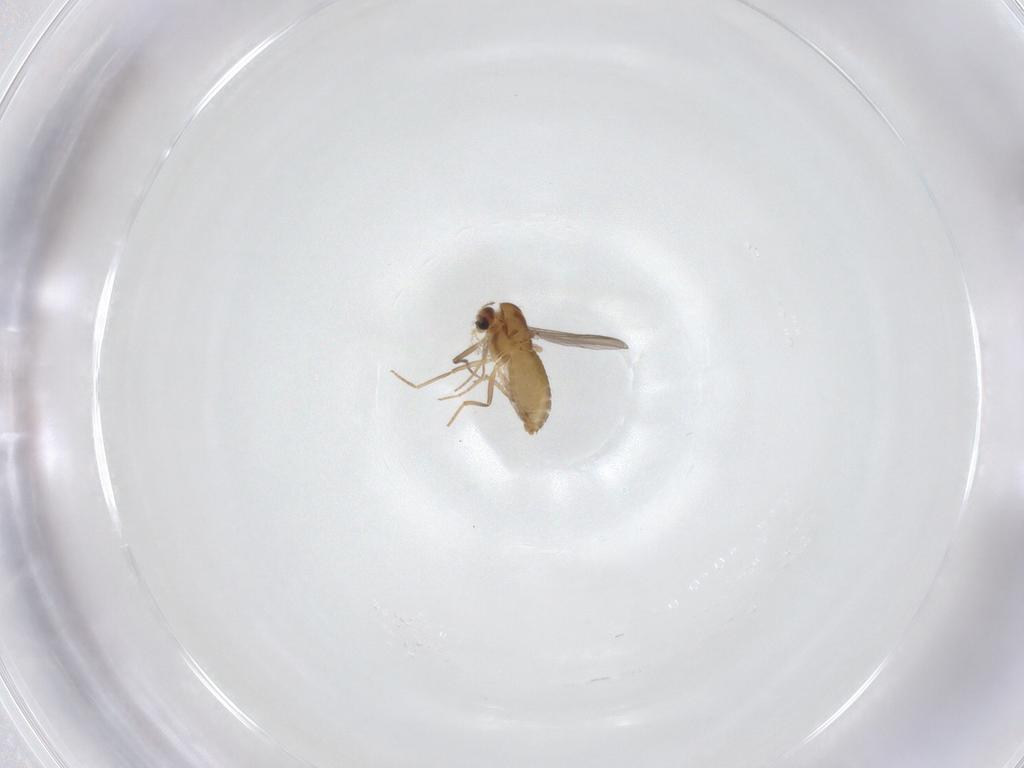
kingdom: Animalia
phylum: Arthropoda
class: Insecta
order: Diptera
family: Chironomidae
